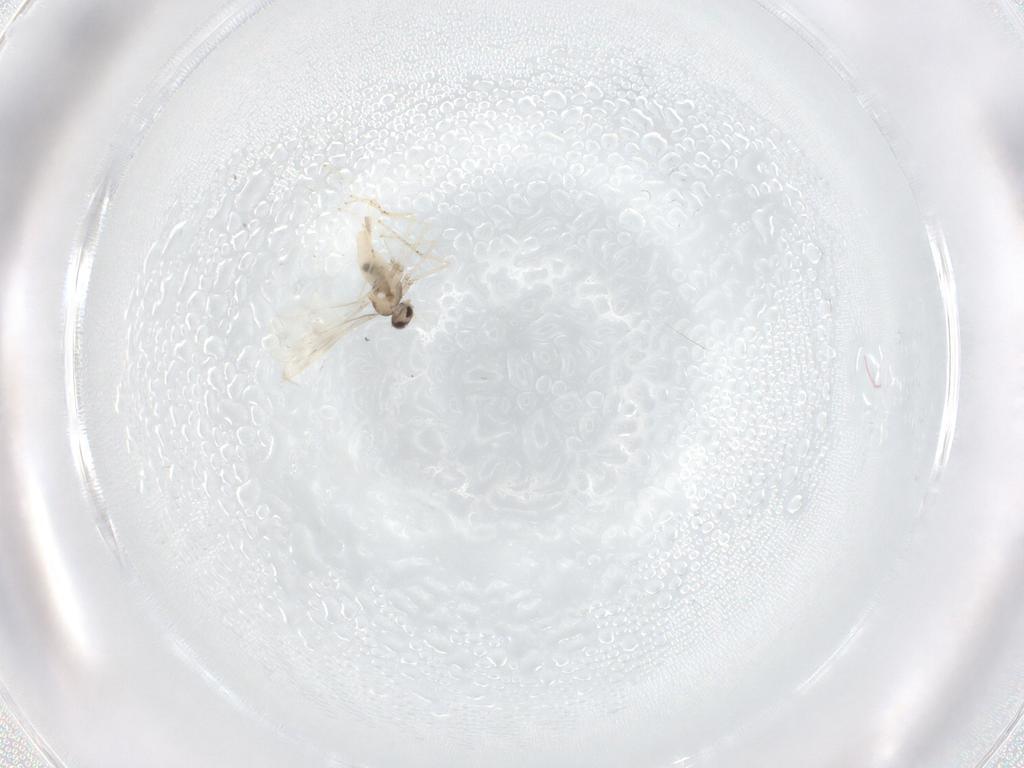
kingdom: Animalia
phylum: Arthropoda
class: Insecta
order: Diptera
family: Cecidomyiidae
